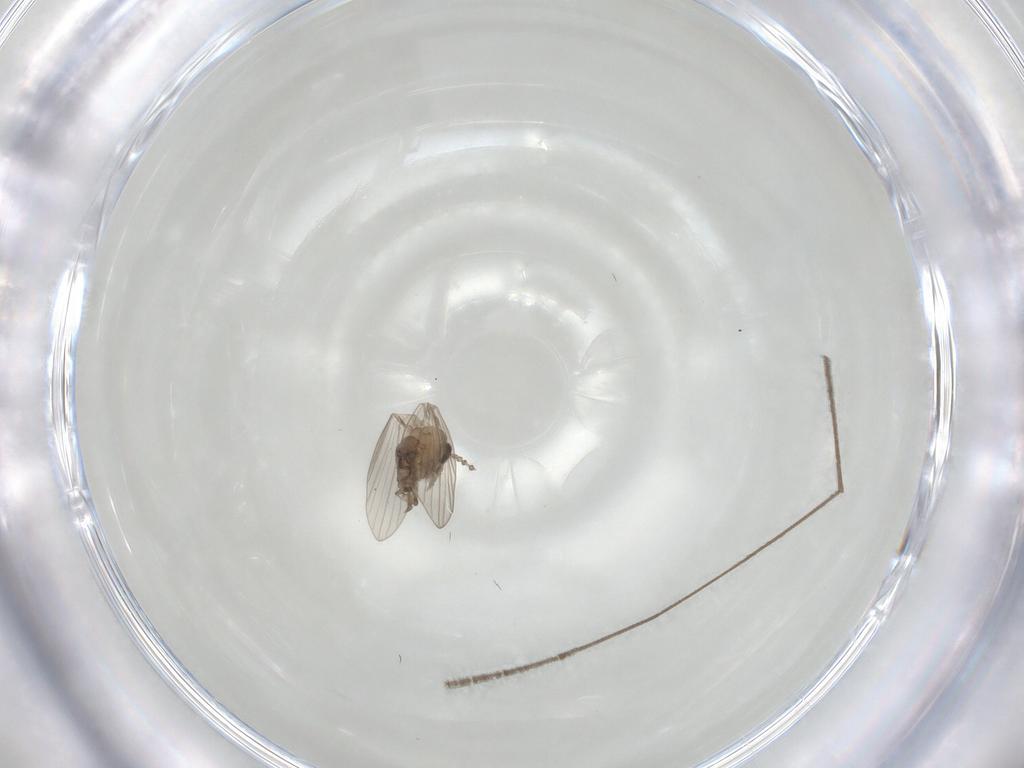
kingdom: Animalia
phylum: Arthropoda
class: Insecta
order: Diptera
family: Psychodidae
